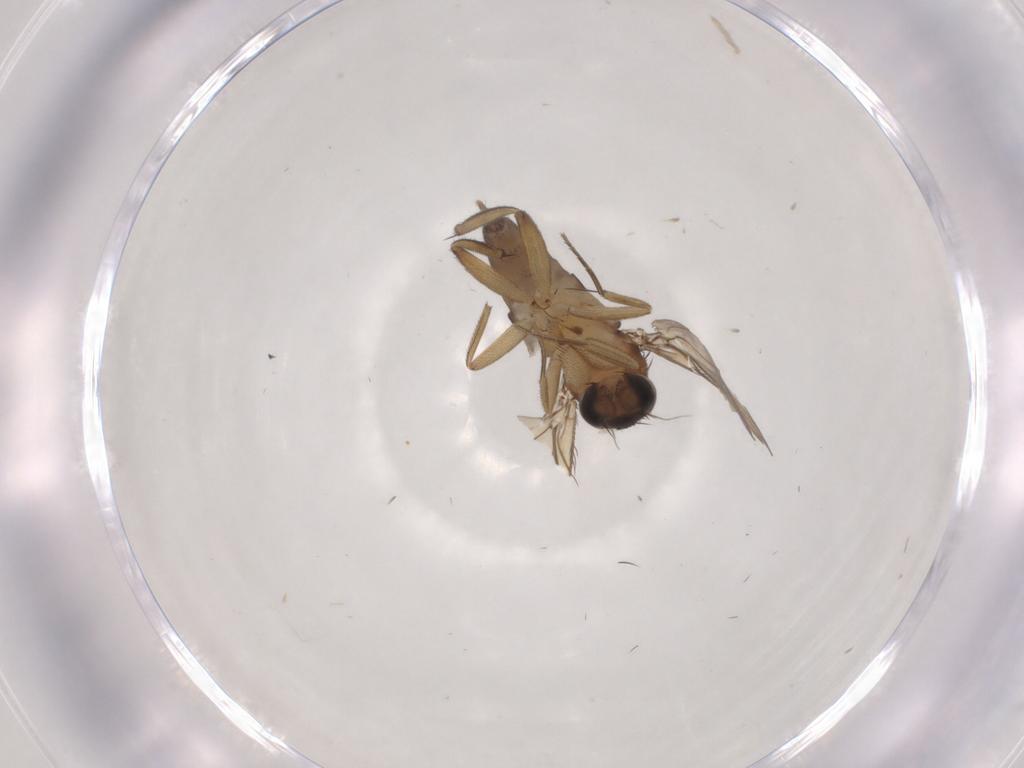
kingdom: Animalia
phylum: Arthropoda
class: Insecta
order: Diptera
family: Phoridae
